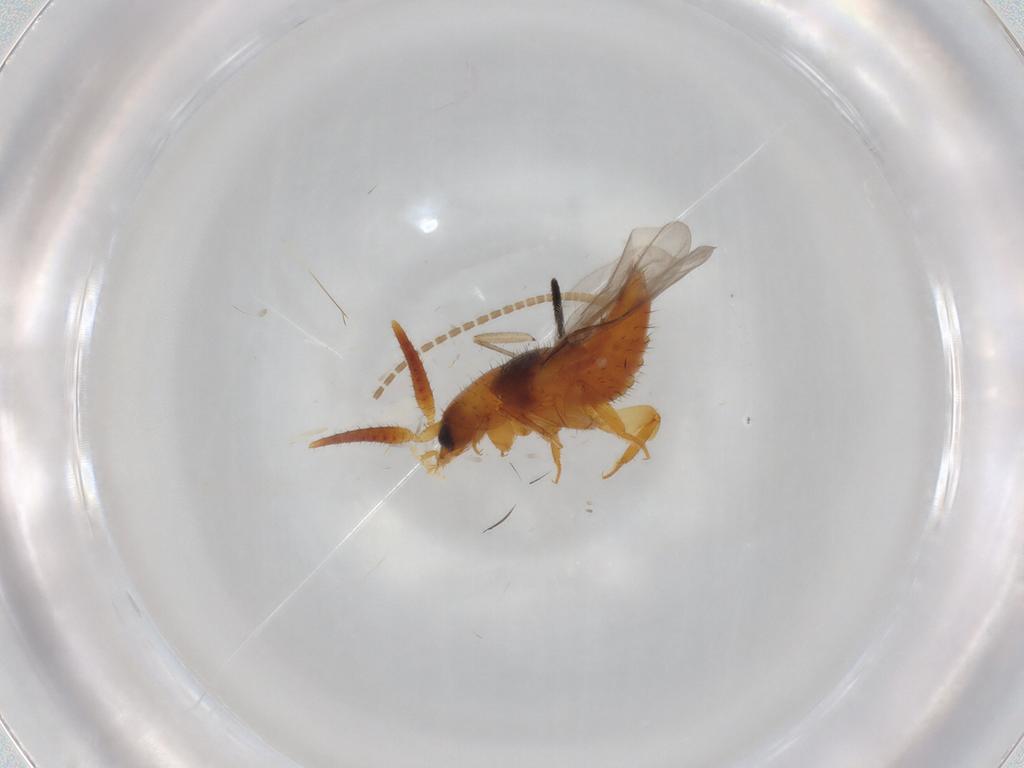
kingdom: Animalia
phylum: Arthropoda
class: Insecta
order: Coleoptera
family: Staphylinidae
